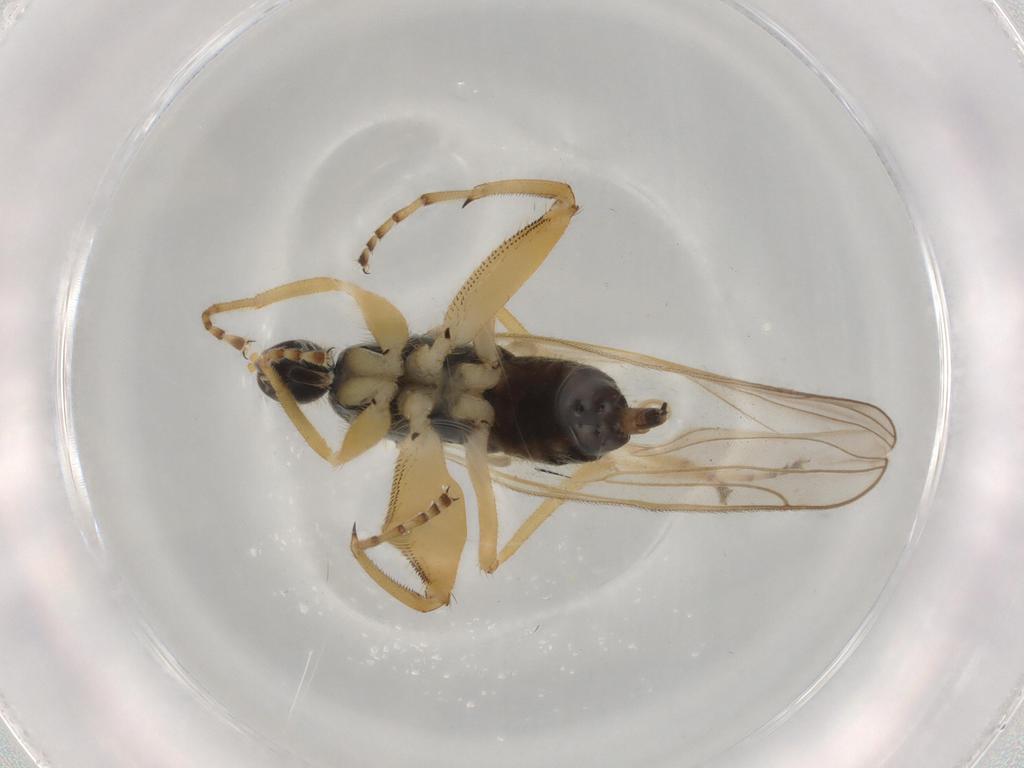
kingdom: Animalia
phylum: Arthropoda
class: Insecta
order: Diptera
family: Hybotidae
